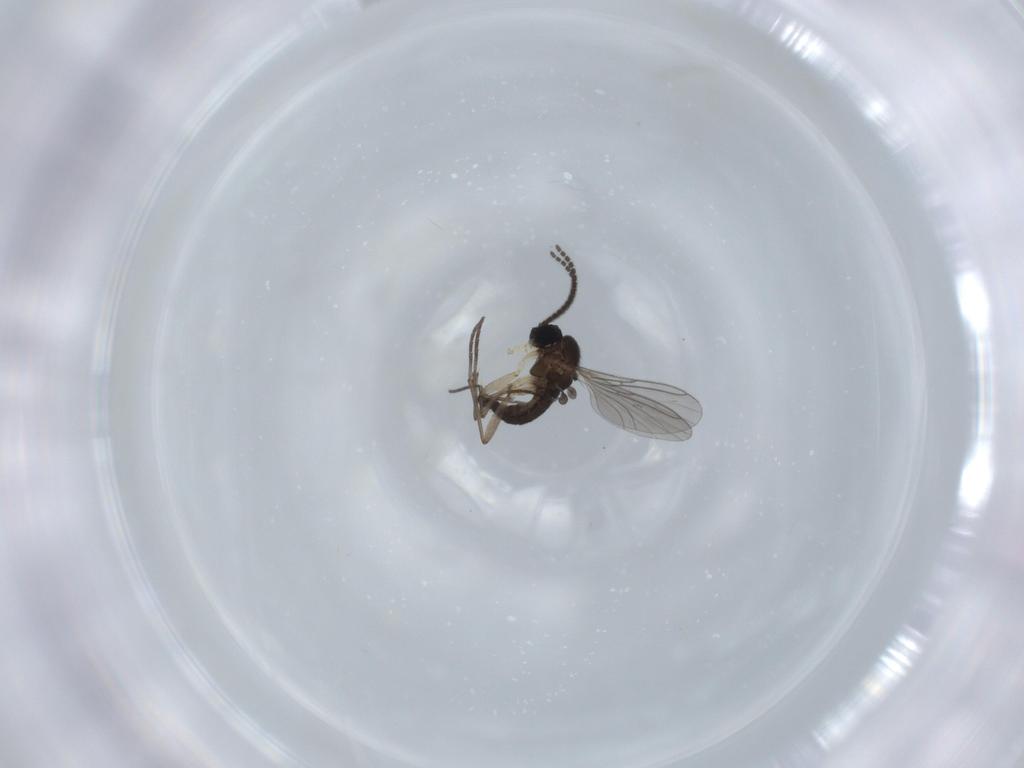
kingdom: Animalia
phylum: Arthropoda
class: Insecta
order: Diptera
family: Sciaridae
